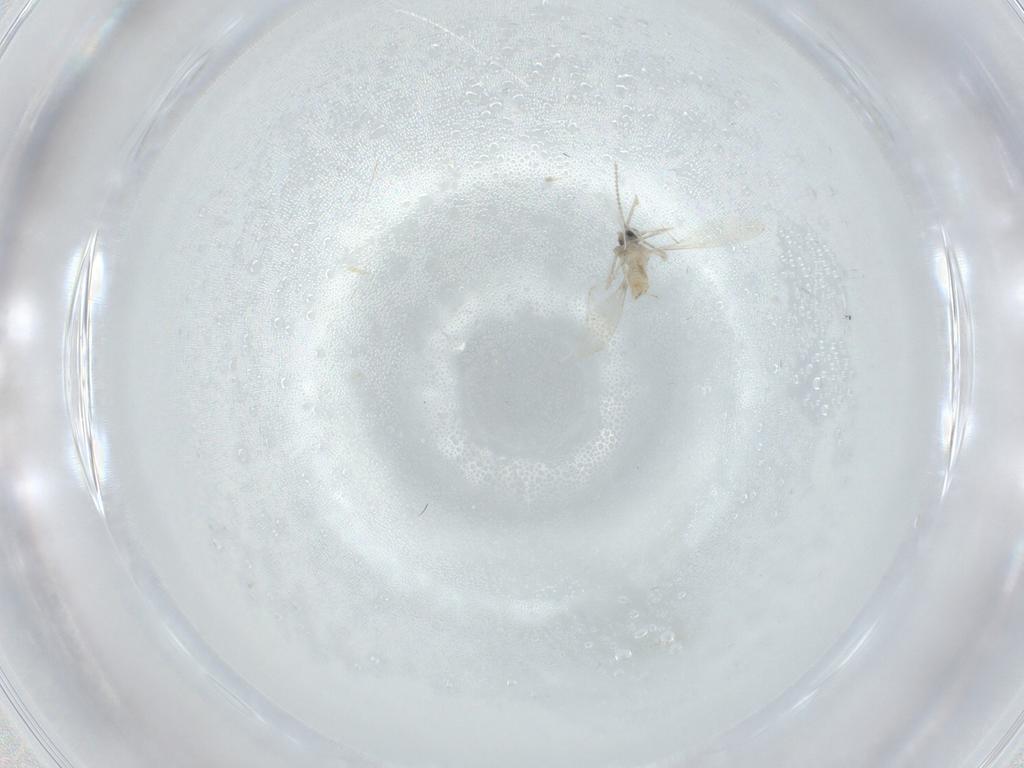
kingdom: Animalia
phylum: Arthropoda
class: Insecta
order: Diptera
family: Cecidomyiidae
